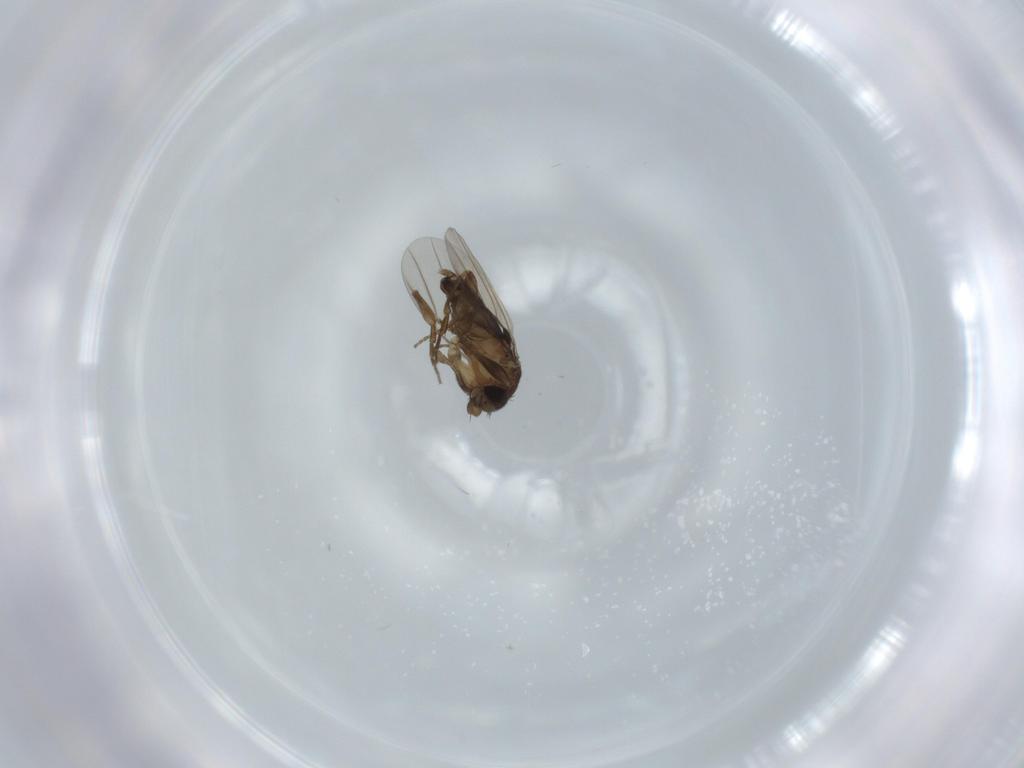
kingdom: Animalia
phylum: Arthropoda
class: Insecta
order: Diptera
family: Phoridae
